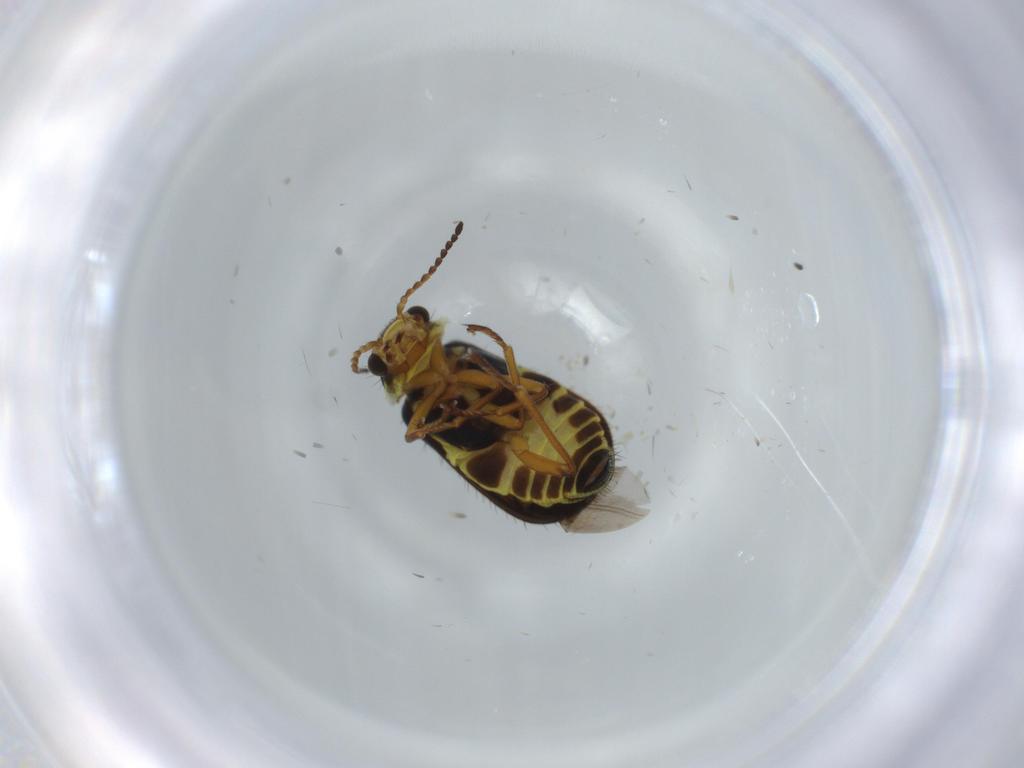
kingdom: Animalia
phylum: Arthropoda
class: Insecta
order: Coleoptera
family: Melyridae
